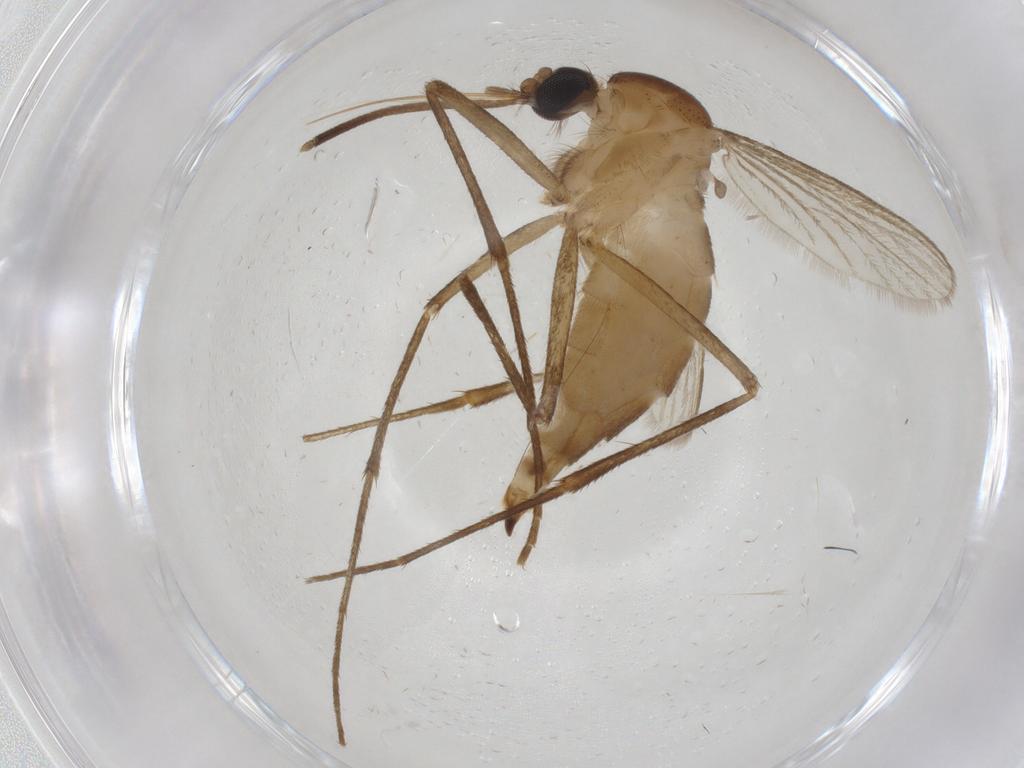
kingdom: Animalia
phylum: Arthropoda
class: Insecta
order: Diptera
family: Culicidae
